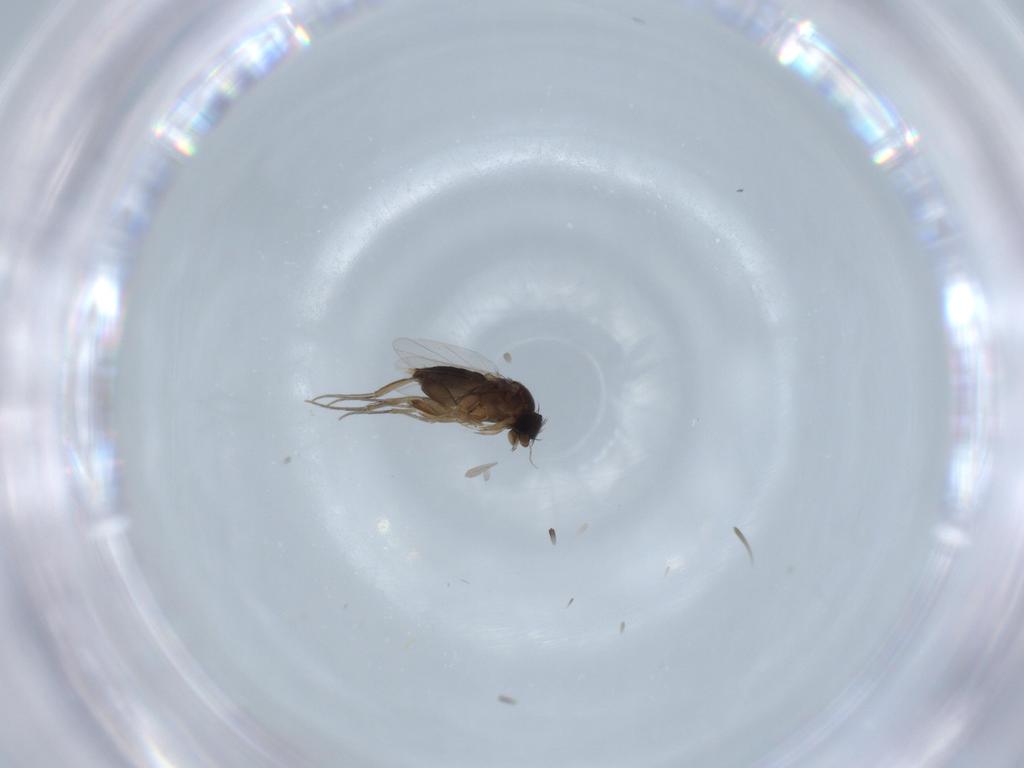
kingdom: Animalia
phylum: Arthropoda
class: Insecta
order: Diptera
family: Phoridae
